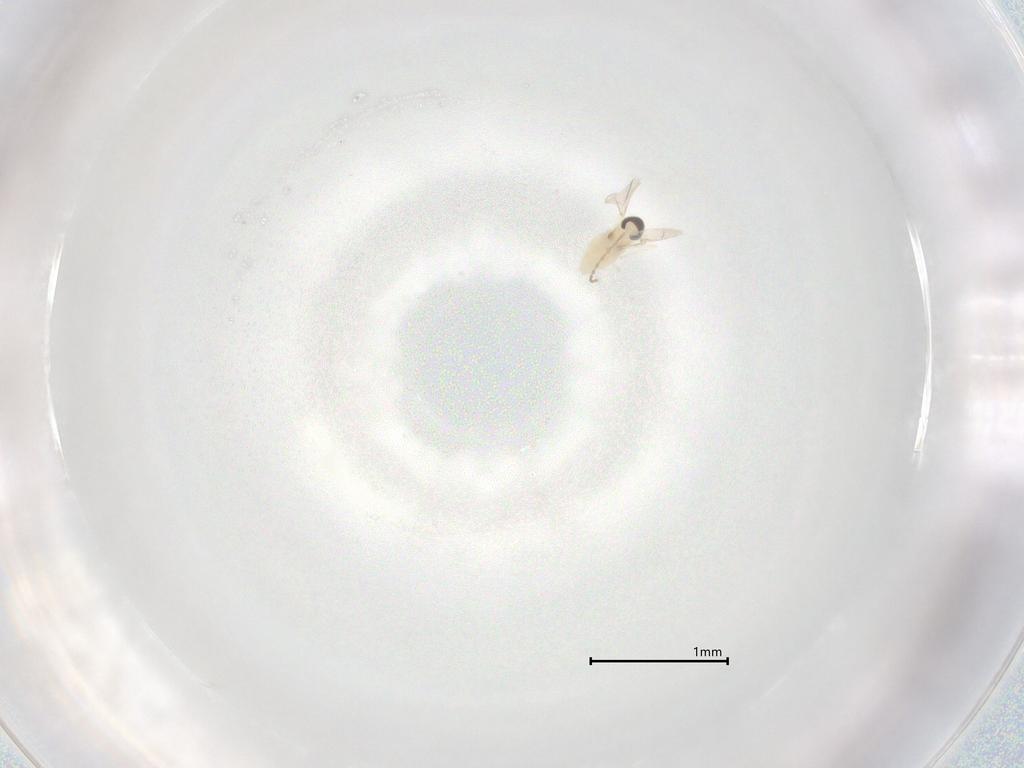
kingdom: Animalia
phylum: Arthropoda
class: Insecta
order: Diptera
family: Cecidomyiidae
